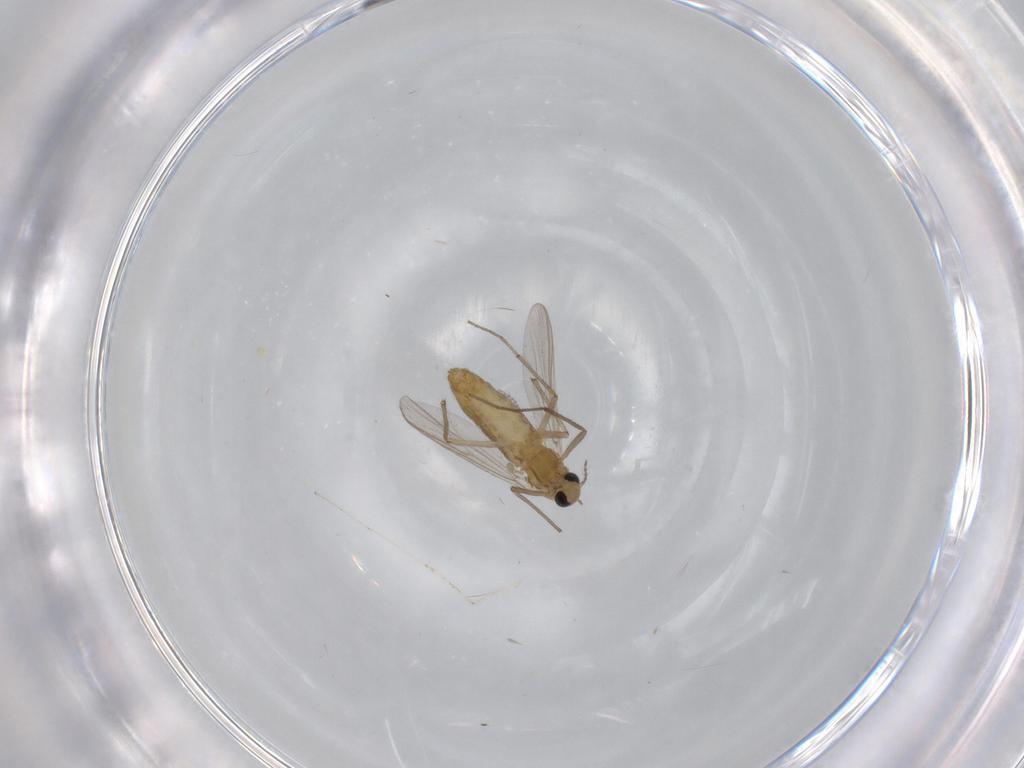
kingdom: Animalia
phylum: Arthropoda
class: Insecta
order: Diptera
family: Chironomidae
